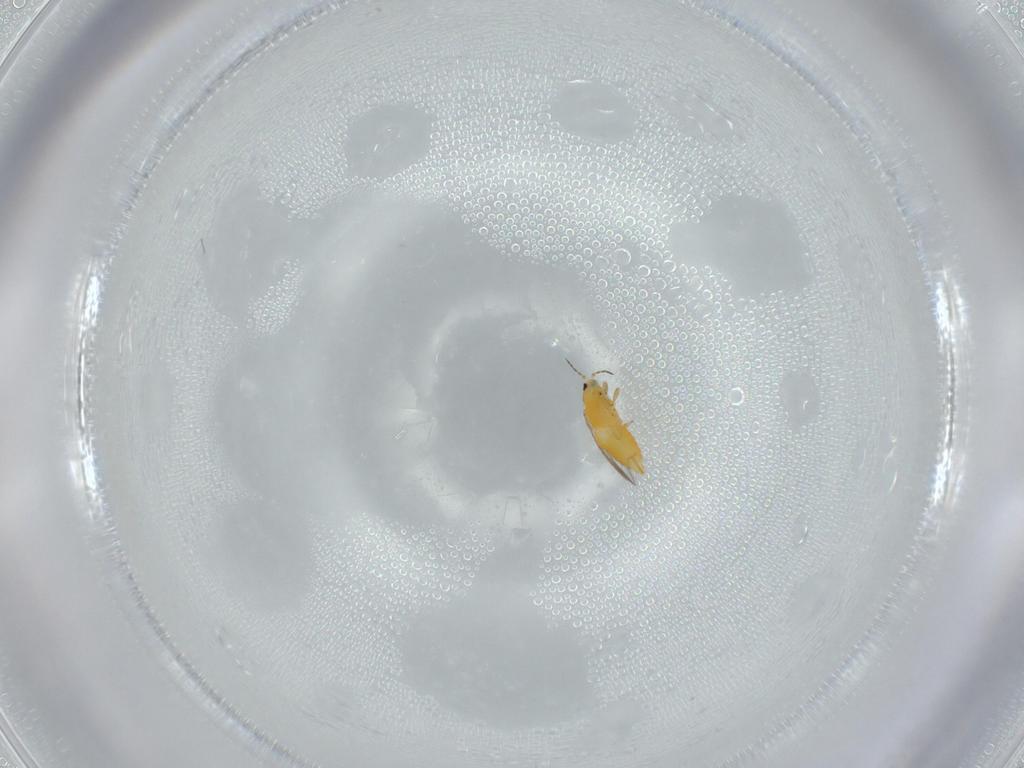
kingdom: Animalia
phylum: Arthropoda
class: Insecta
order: Thysanoptera
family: Thripidae
